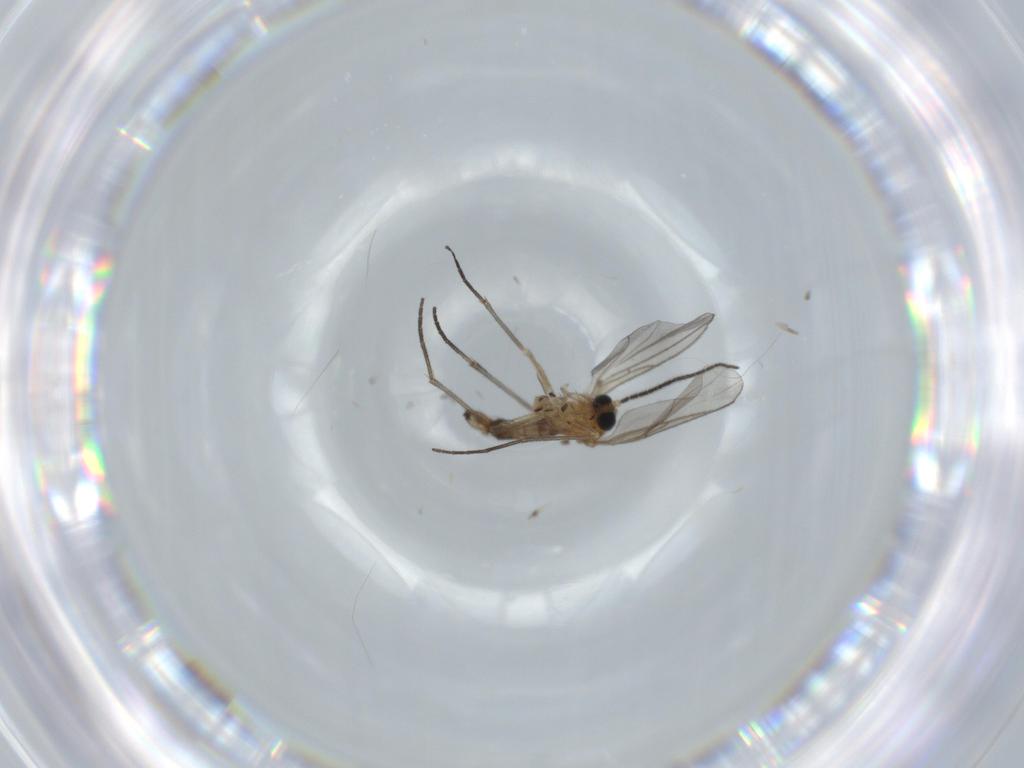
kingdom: Animalia
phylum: Arthropoda
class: Insecta
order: Diptera
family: Sciaridae
